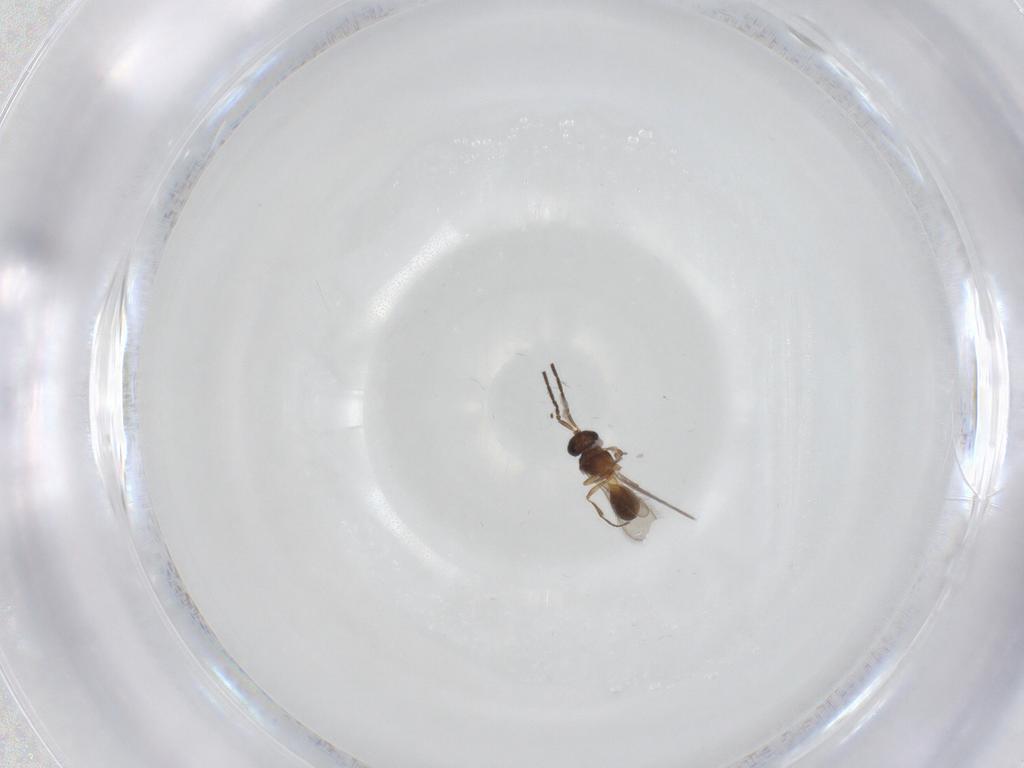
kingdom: Animalia
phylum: Arthropoda
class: Insecta
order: Hymenoptera
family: Scelionidae
